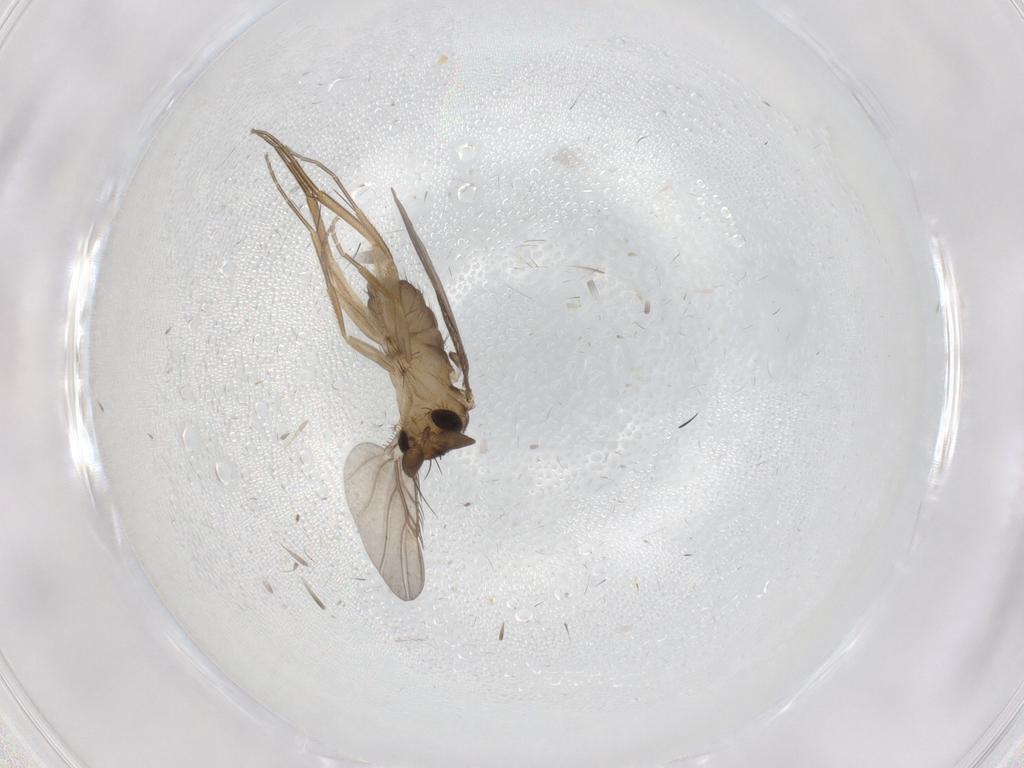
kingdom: Animalia
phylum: Arthropoda
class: Insecta
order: Diptera
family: Phoridae
